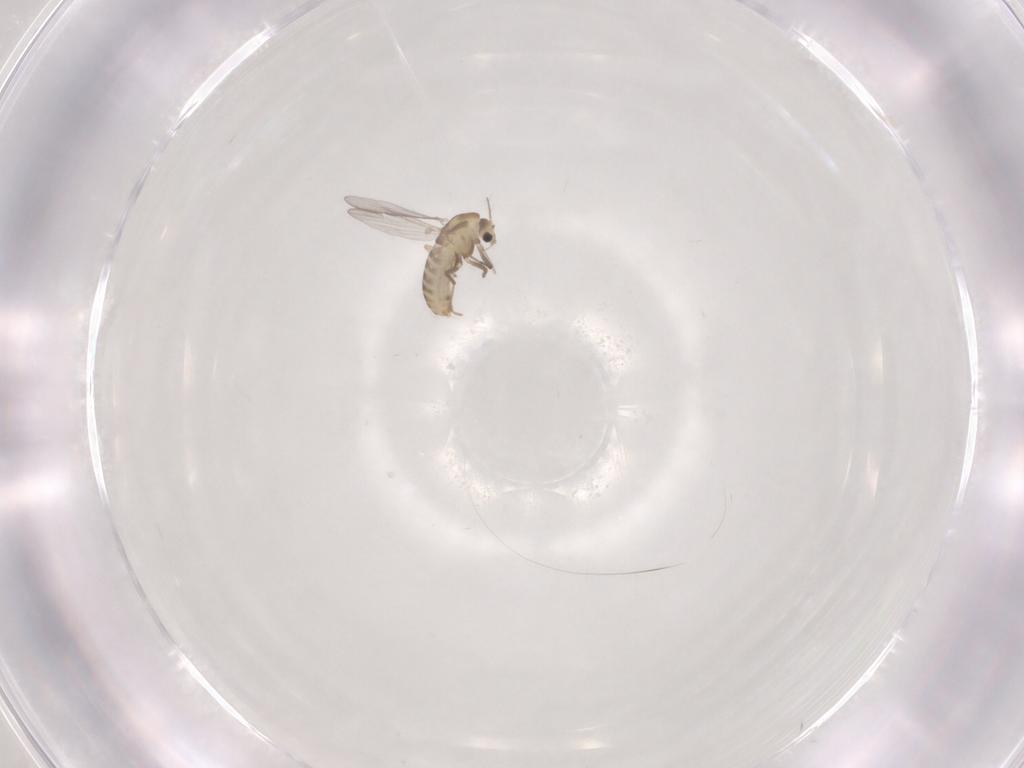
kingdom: Animalia
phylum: Arthropoda
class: Insecta
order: Diptera
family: Chironomidae
